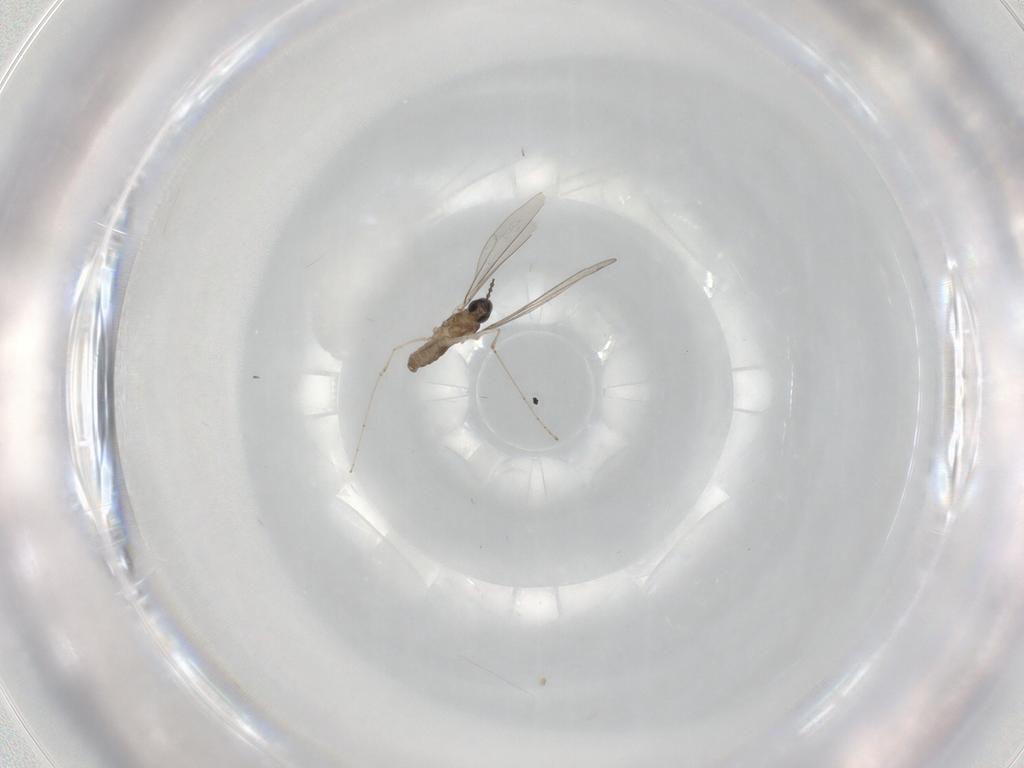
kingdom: Animalia
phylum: Arthropoda
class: Insecta
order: Diptera
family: Cecidomyiidae
